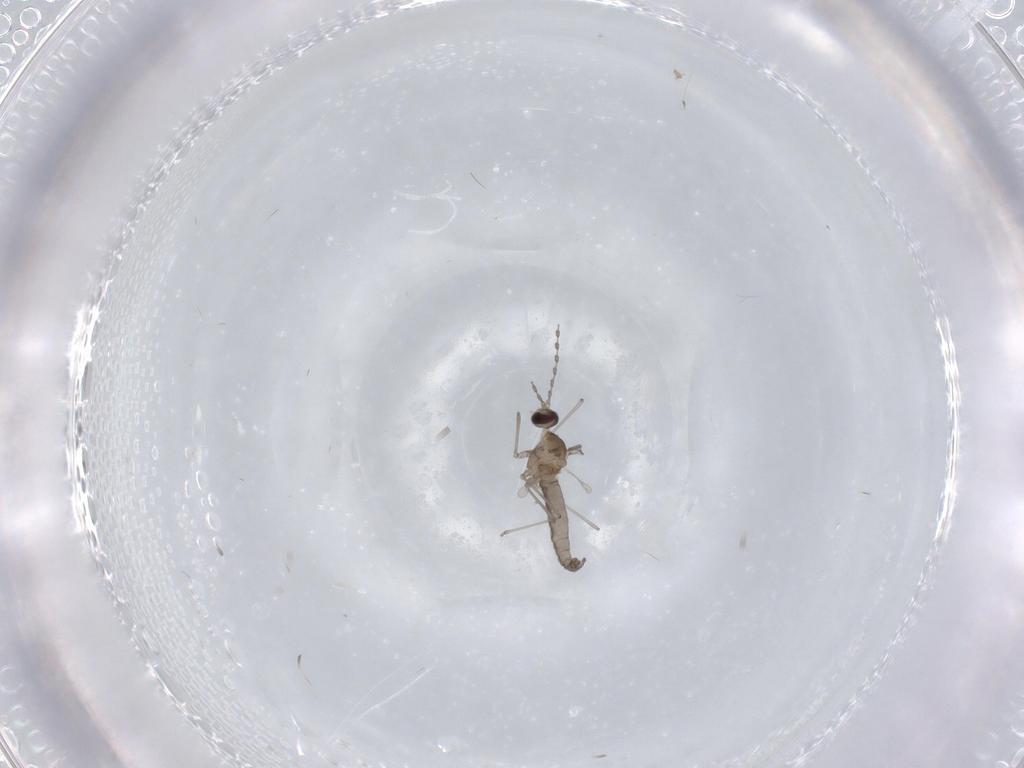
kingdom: Animalia
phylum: Arthropoda
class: Insecta
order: Diptera
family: Cecidomyiidae
